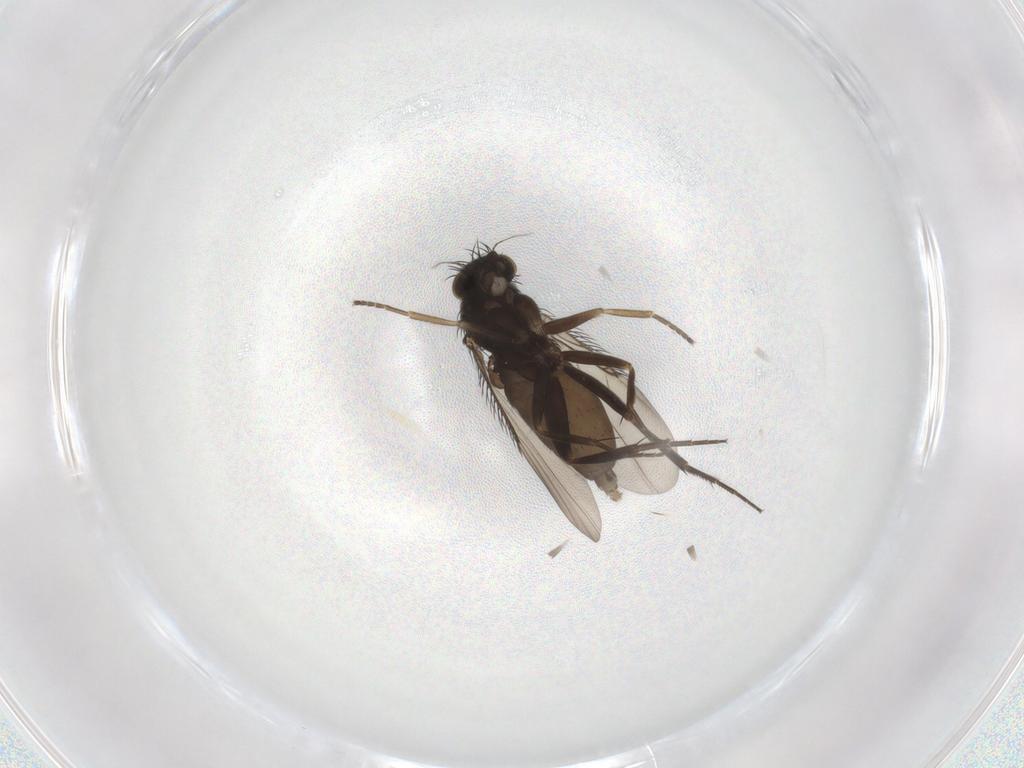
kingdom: Animalia
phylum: Arthropoda
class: Insecta
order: Diptera
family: Phoridae
